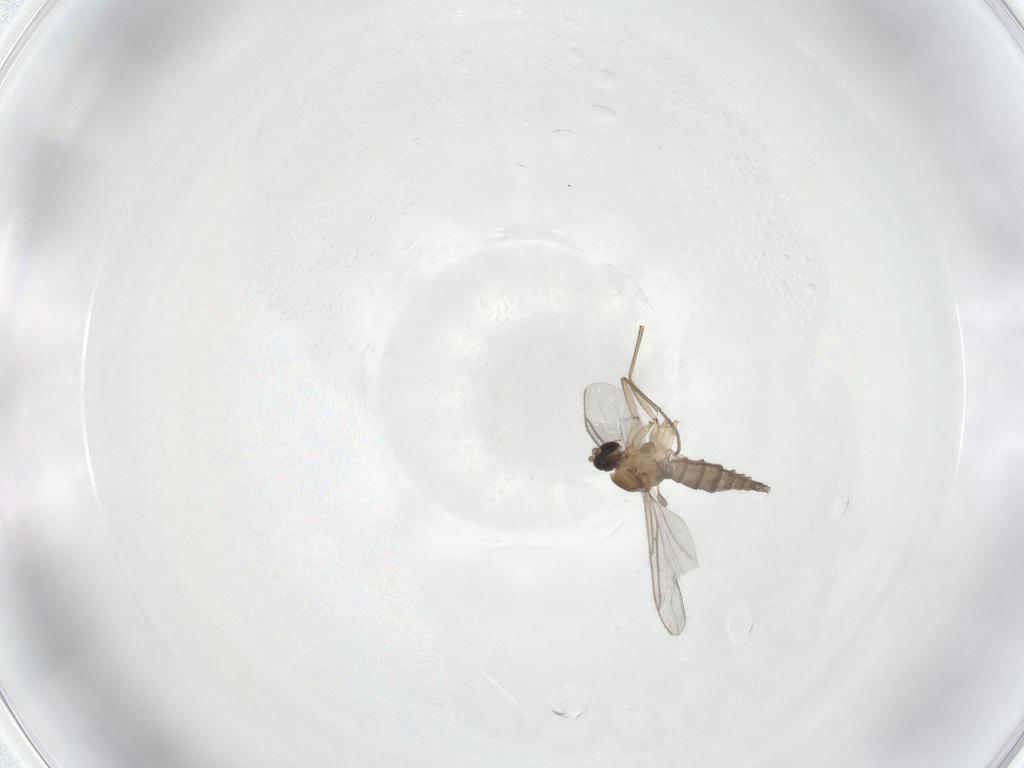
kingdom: Animalia
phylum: Arthropoda
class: Insecta
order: Diptera
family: Sciaridae
